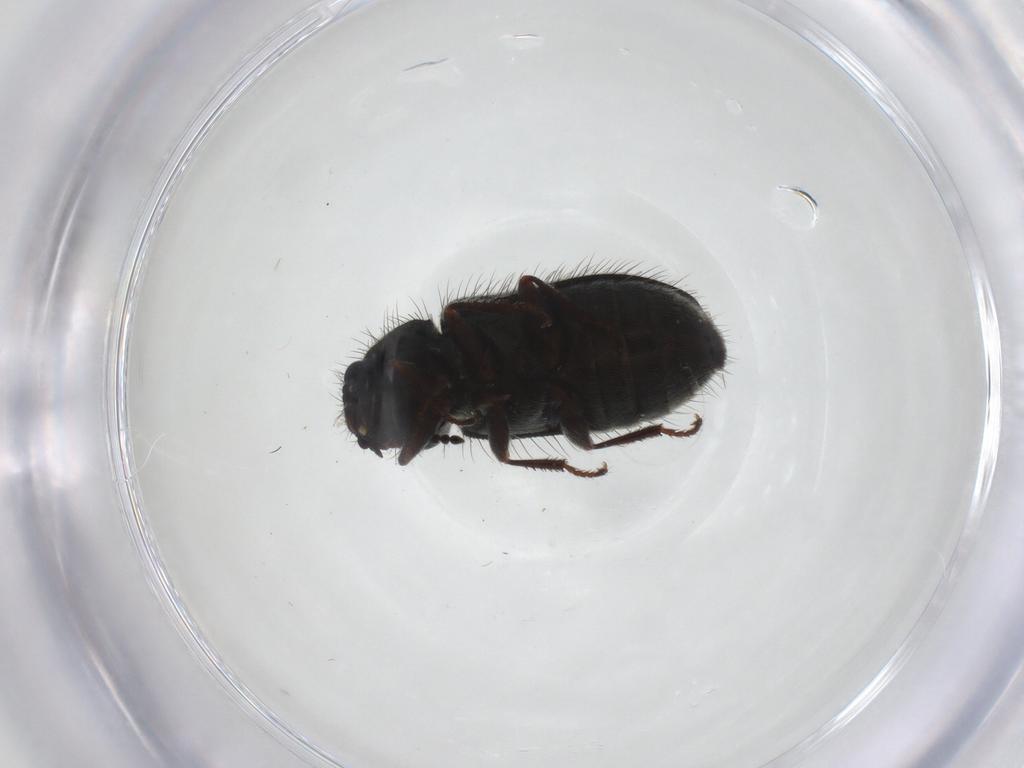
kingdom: Animalia
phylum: Arthropoda
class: Insecta
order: Coleoptera
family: Melyridae
